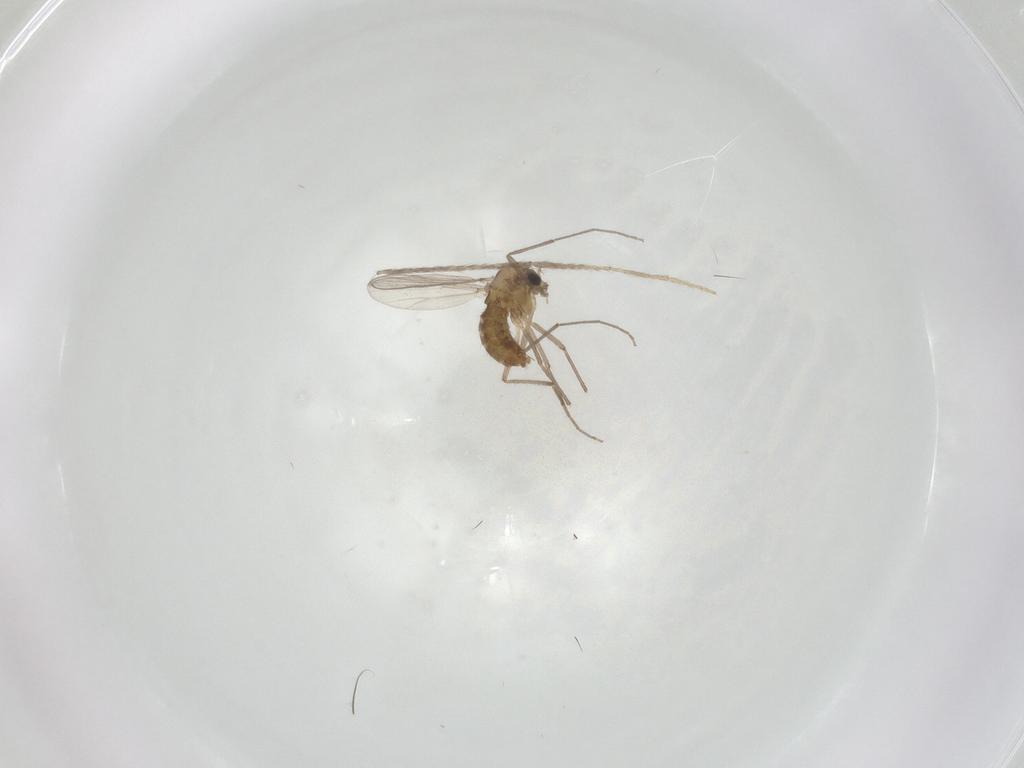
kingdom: Animalia
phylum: Arthropoda
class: Insecta
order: Diptera
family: Chironomidae
